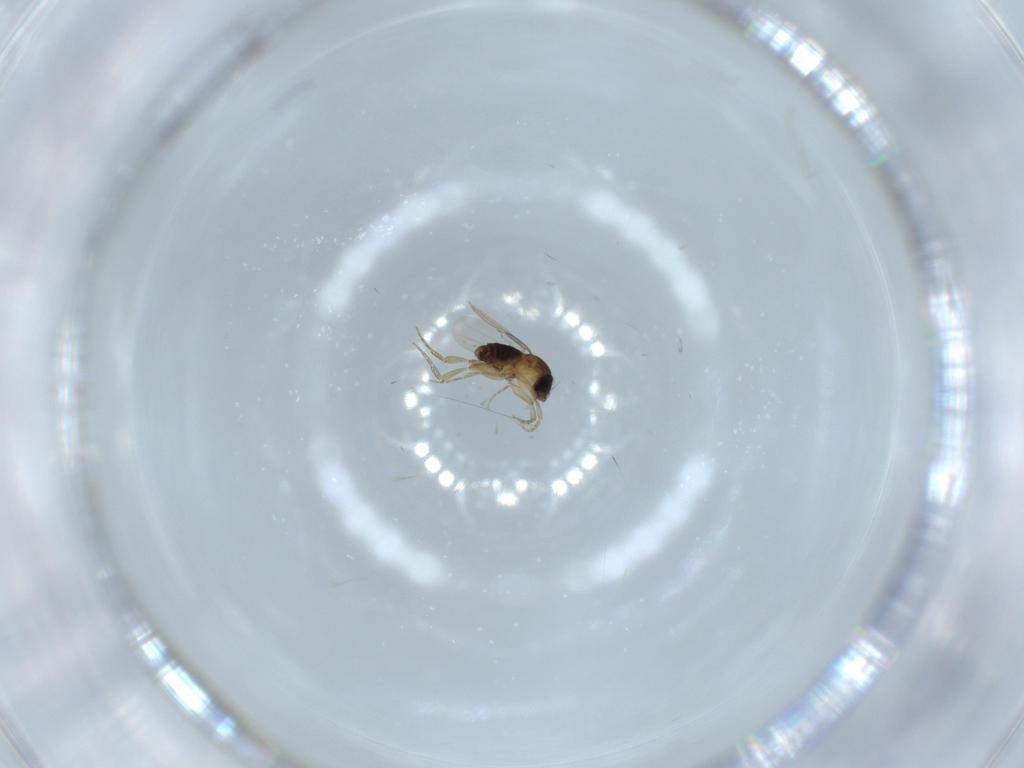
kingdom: Animalia
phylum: Arthropoda
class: Insecta
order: Diptera
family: Phoridae
